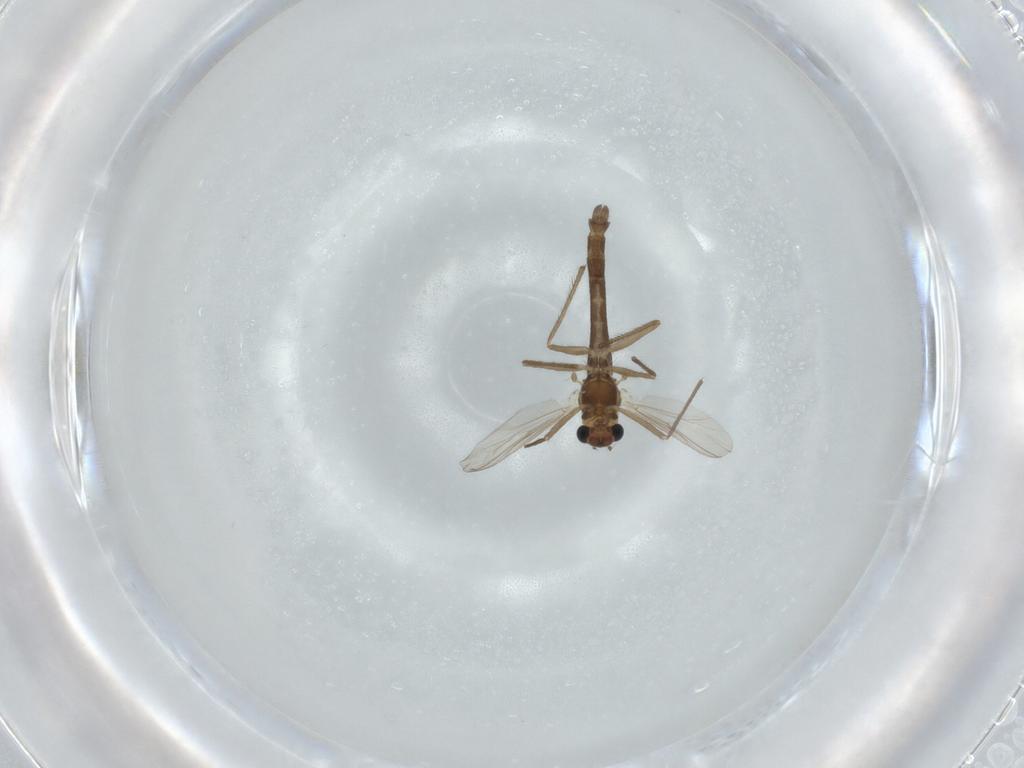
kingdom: Animalia
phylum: Arthropoda
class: Insecta
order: Diptera
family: Chironomidae
